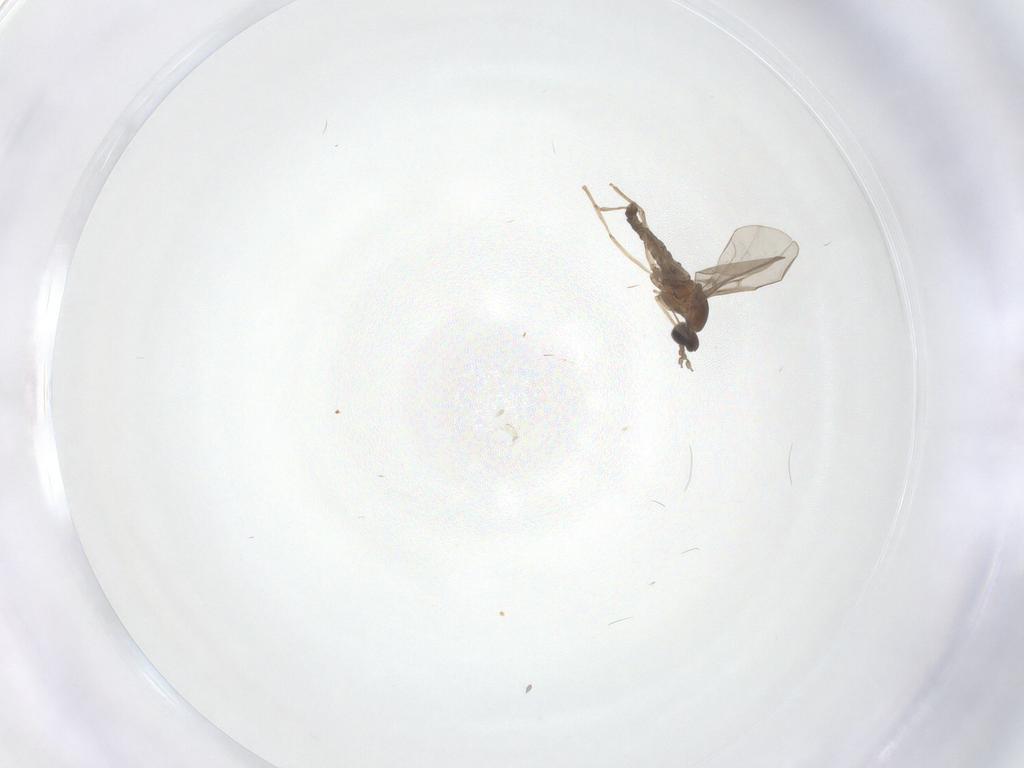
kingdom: Animalia
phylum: Arthropoda
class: Insecta
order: Diptera
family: Cecidomyiidae
